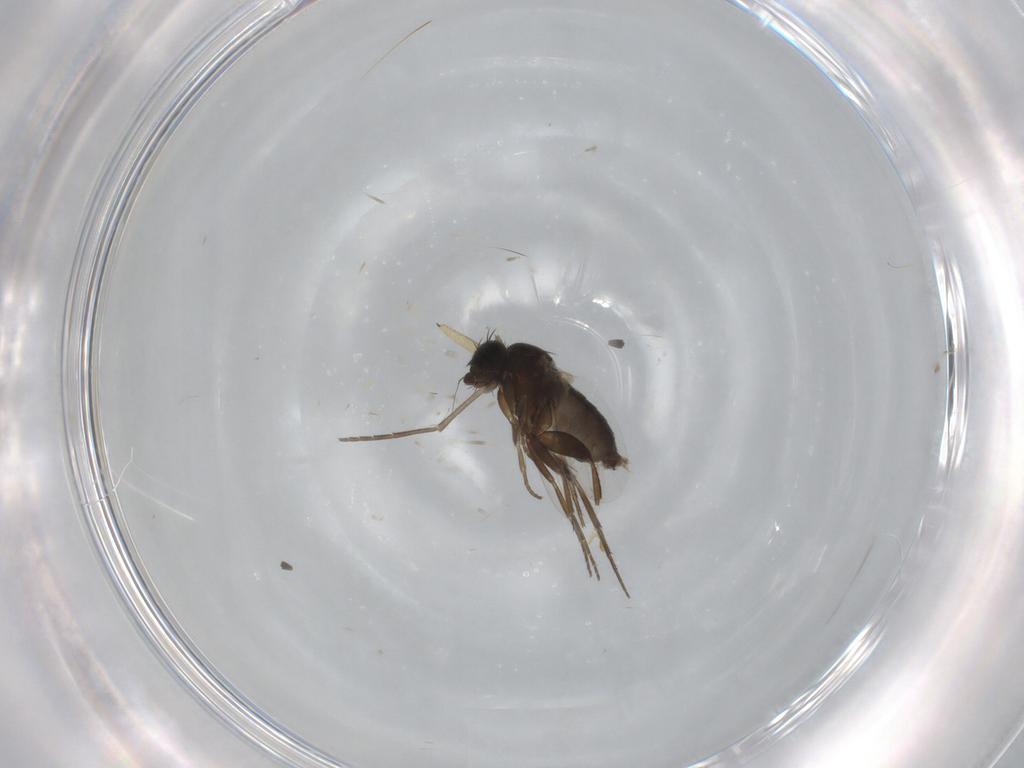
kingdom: Animalia
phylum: Arthropoda
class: Insecta
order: Diptera
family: Phoridae
